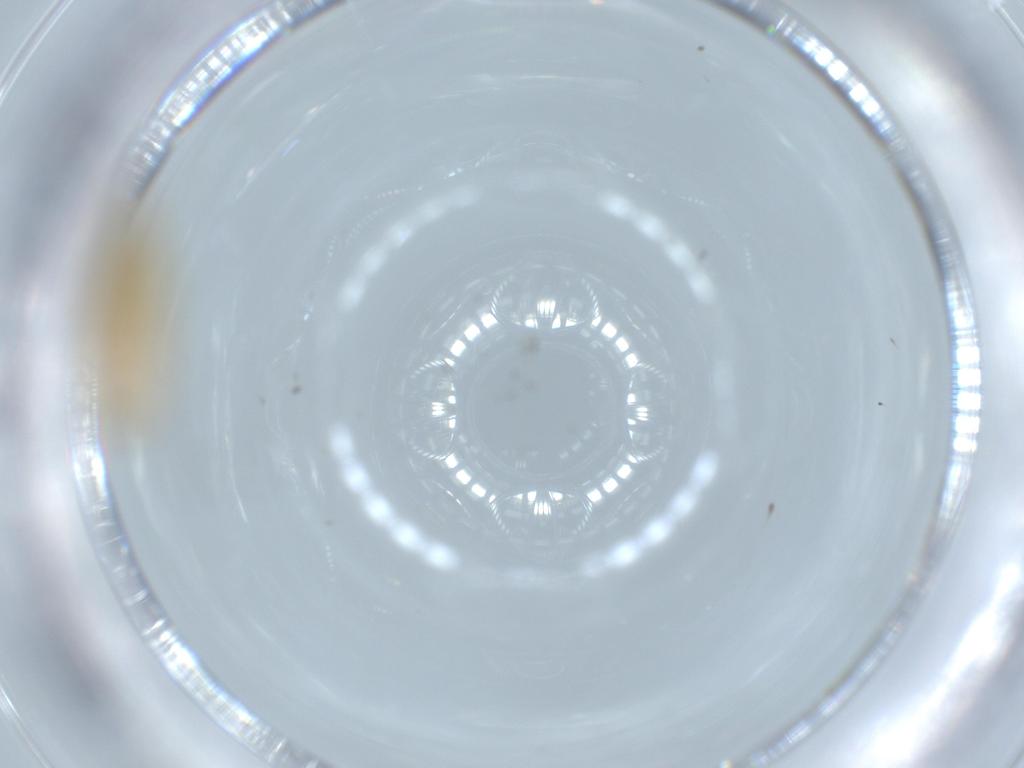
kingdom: Animalia
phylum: Arthropoda
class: Insecta
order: Psocodea
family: Caeciliusidae
